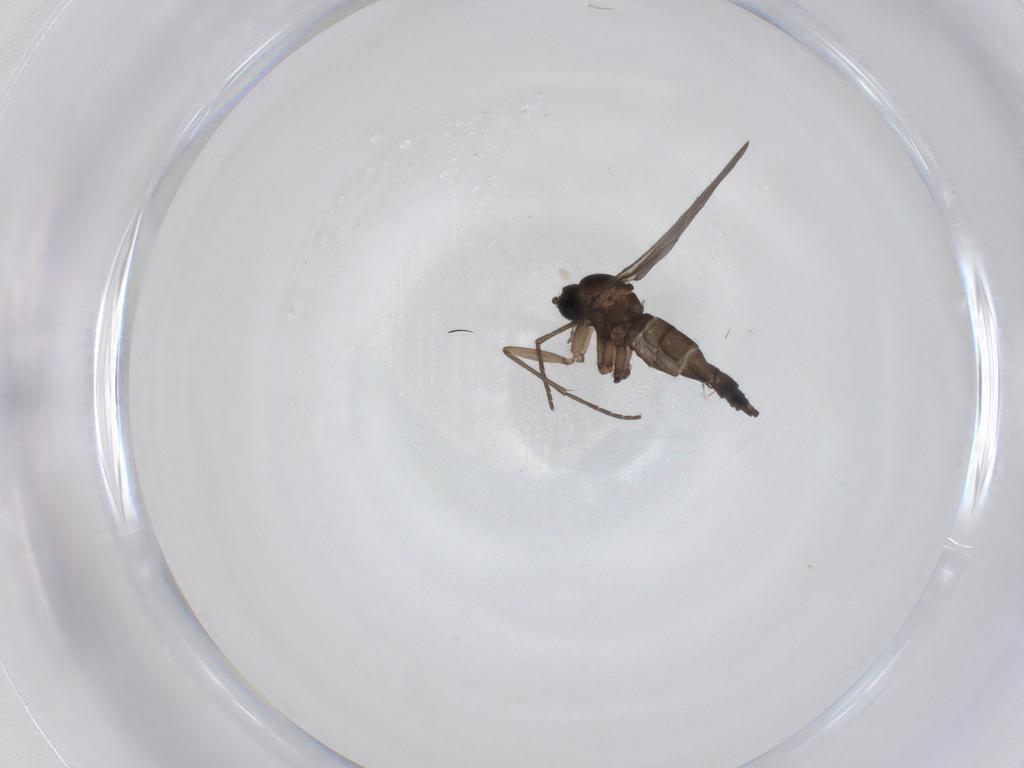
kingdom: Animalia
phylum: Arthropoda
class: Insecta
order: Diptera
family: Sciaridae
